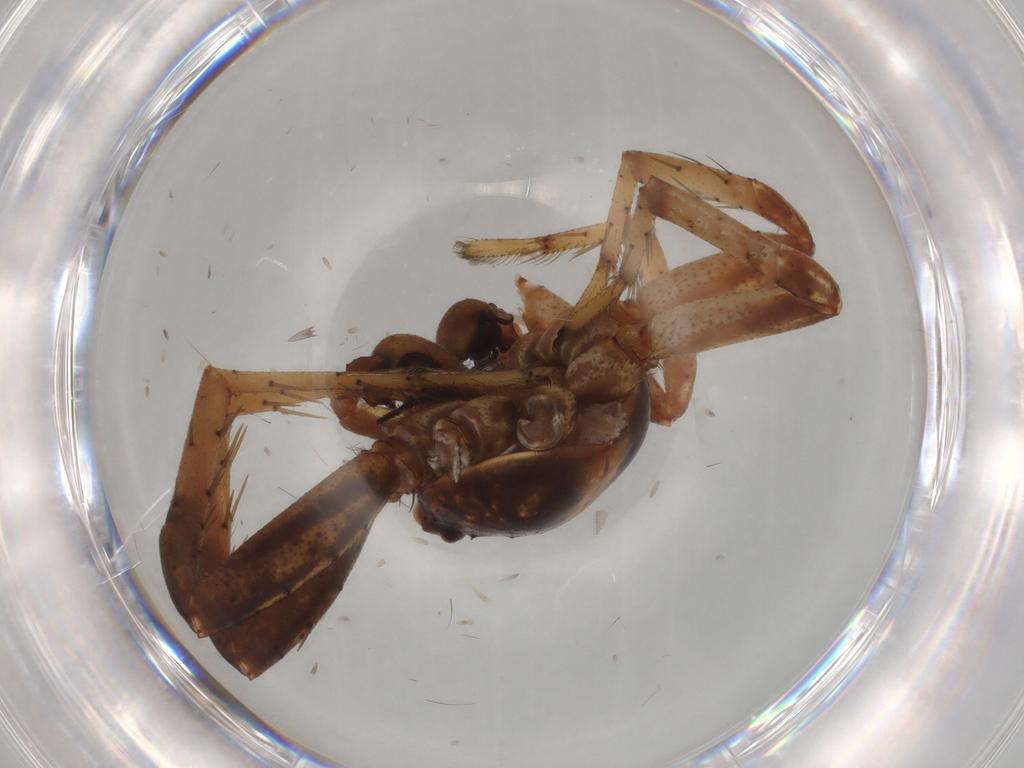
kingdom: Animalia
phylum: Arthropoda
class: Arachnida
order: Araneae
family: Thomisidae
